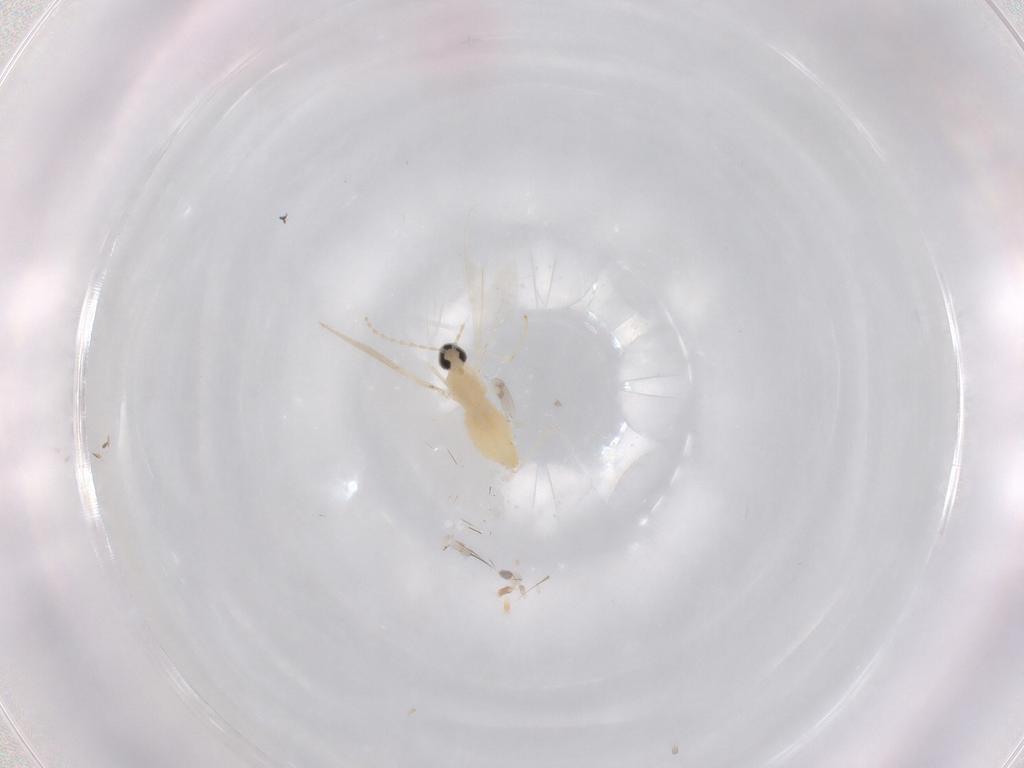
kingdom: Animalia
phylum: Arthropoda
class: Insecta
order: Diptera
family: Cecidomyiidae
